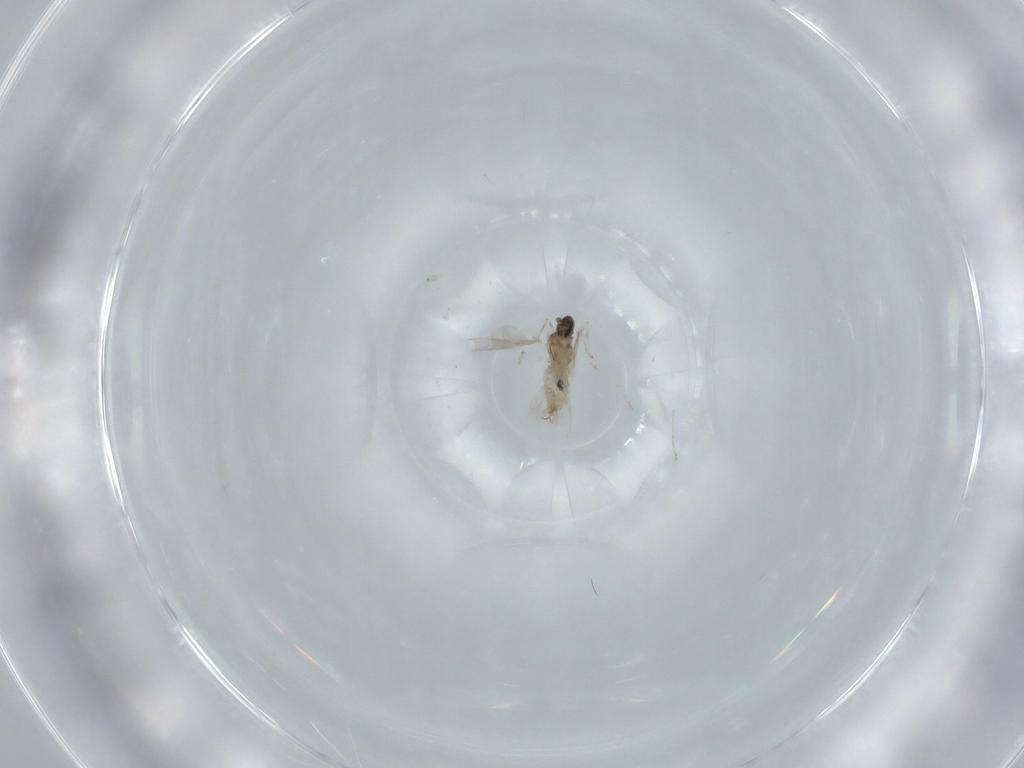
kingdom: Animalia
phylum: Arthropoda
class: Insecta
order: Diptera
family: Cecidomyiidae
